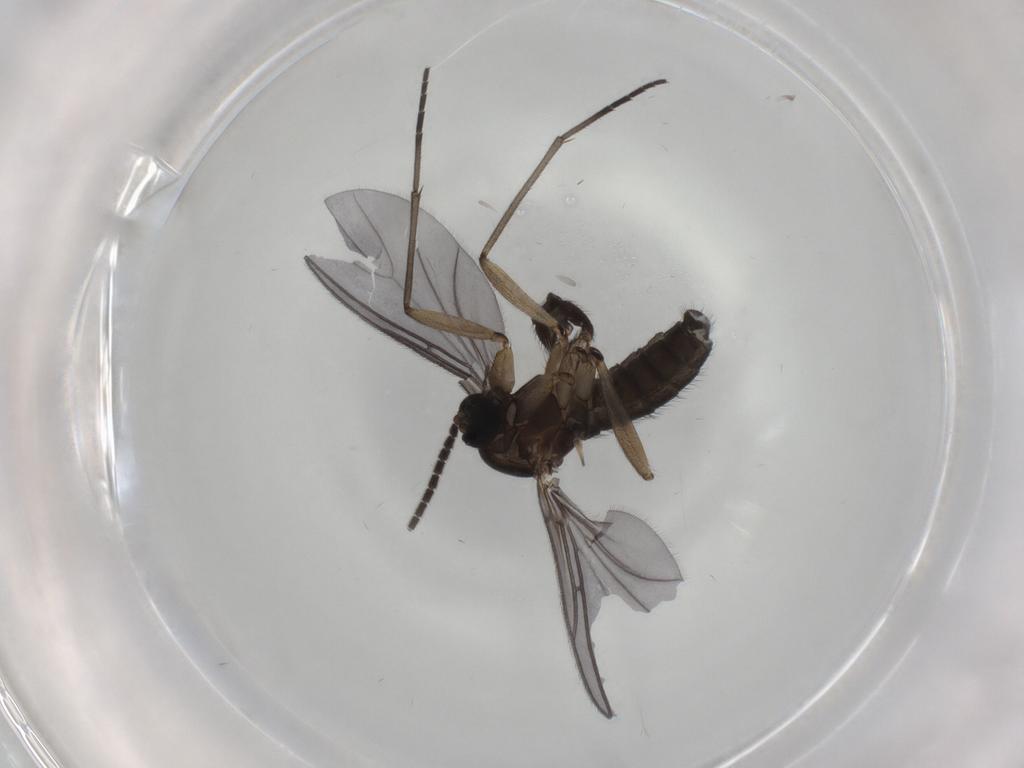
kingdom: Animalia
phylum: Arthropoda
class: Insecta
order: Diptera
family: Sciaridae
